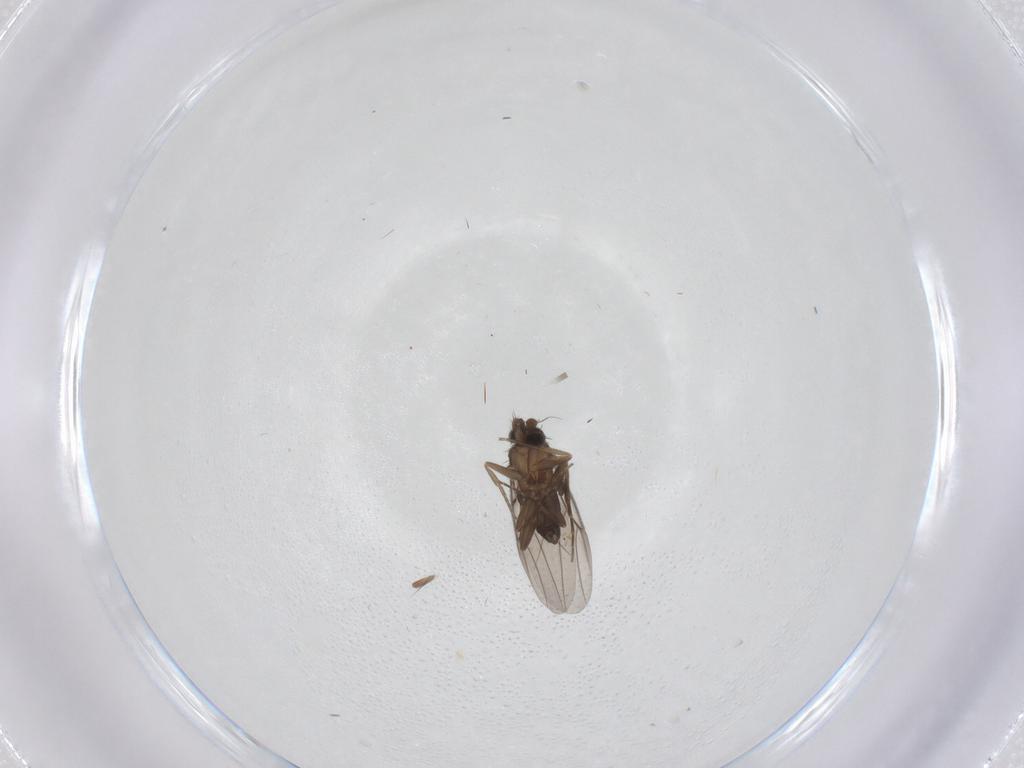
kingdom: Animalia
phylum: Arthropoda
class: Insecta
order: Diptera
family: Phoridae
